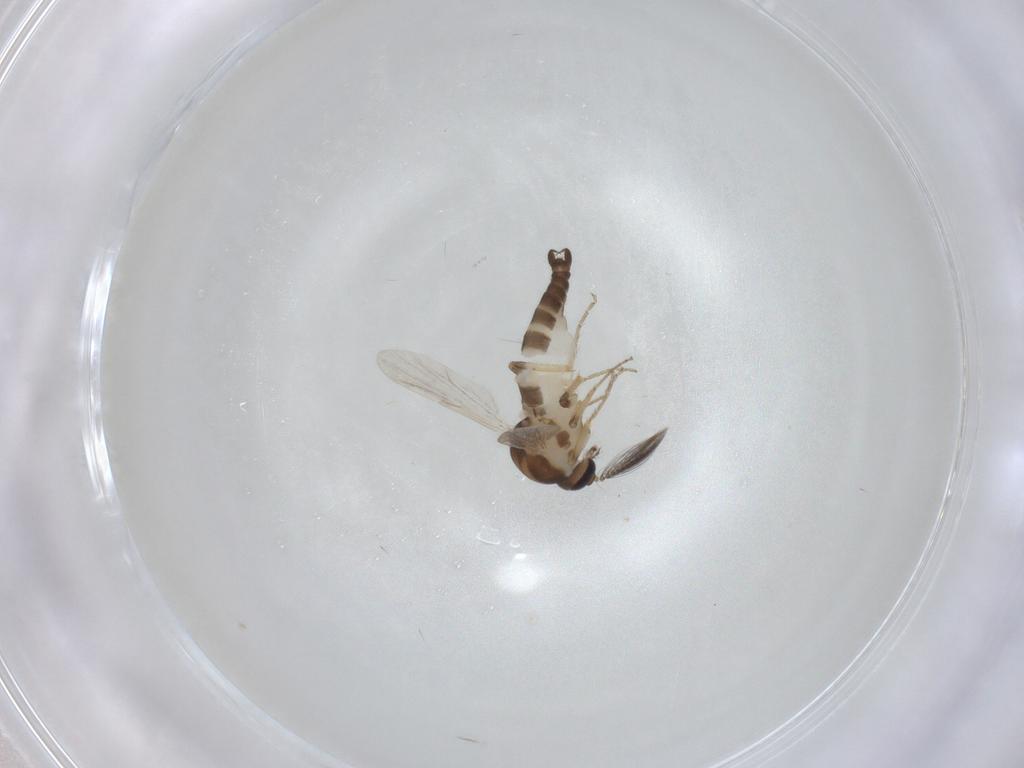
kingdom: Animalia
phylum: Arthropoda
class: Insecta
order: Diptera
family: Ceratopogonidae
